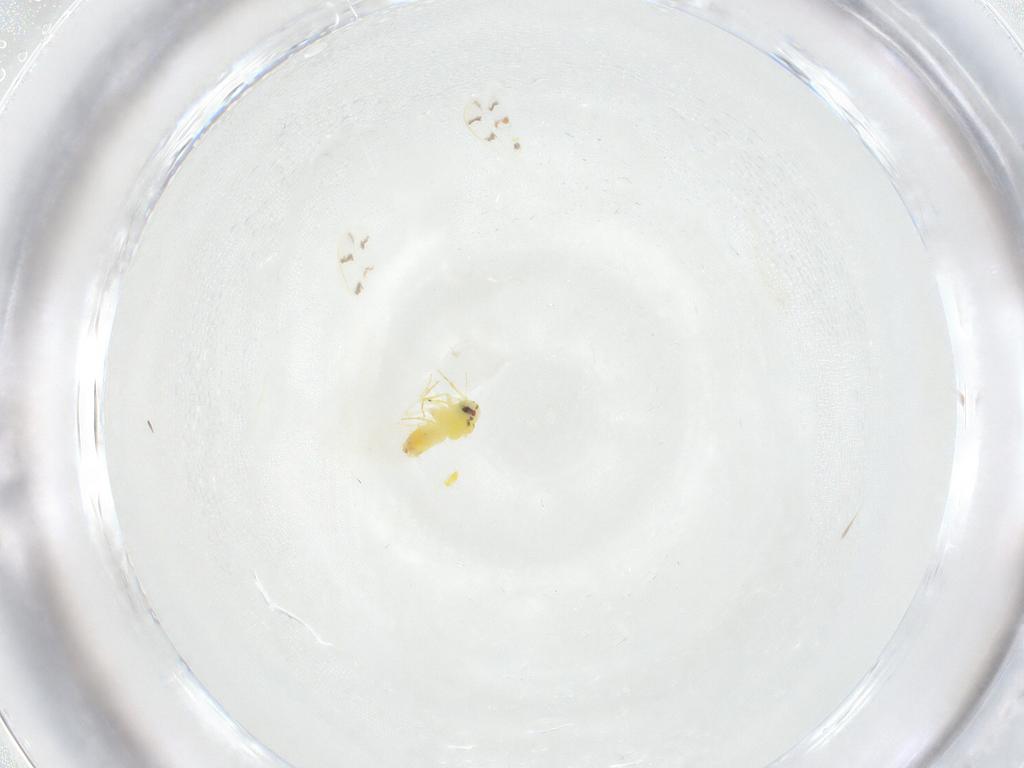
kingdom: Animalia
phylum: Arthropoda
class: Insecta
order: Hemiptera
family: Aleyrodidae
